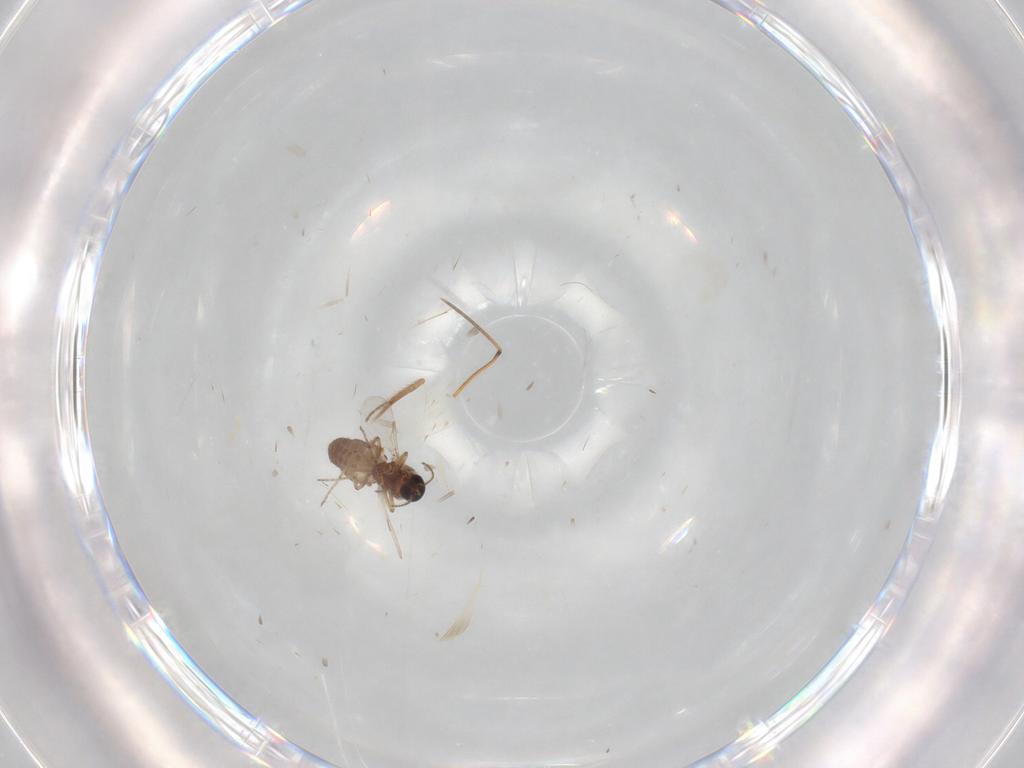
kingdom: Animalia
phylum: Arthropoda
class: Insecta
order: Diptera
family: Ceratopogonidae
